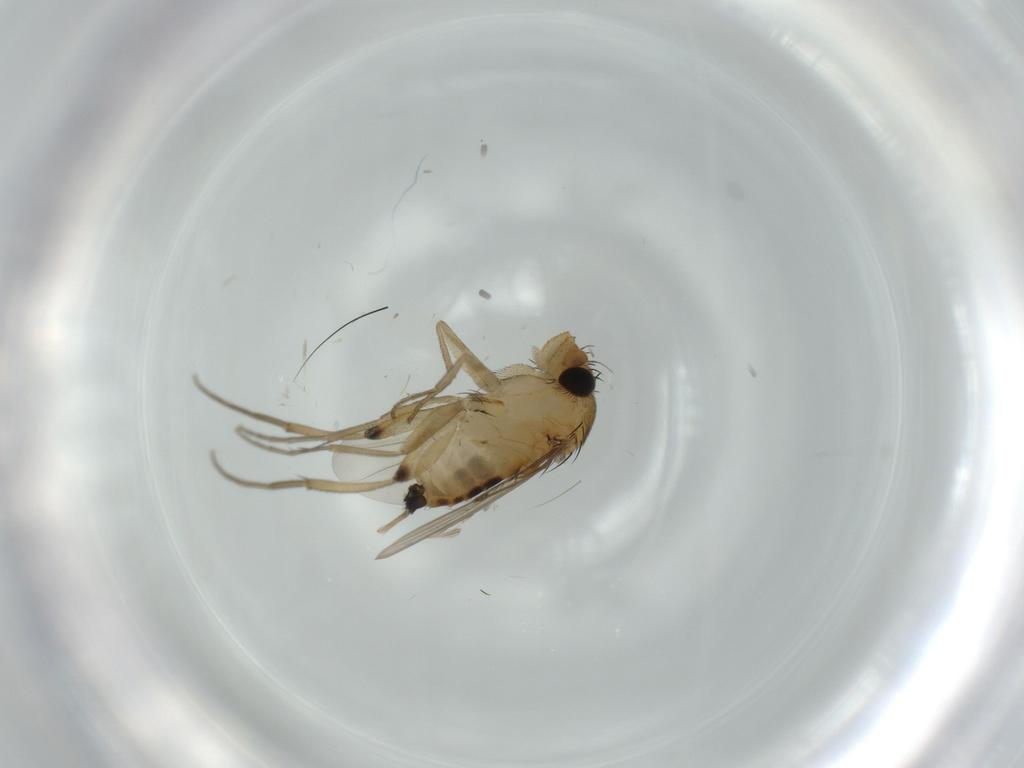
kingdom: Animalia
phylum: Arthropoda
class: Insecta
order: Diptera
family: Phoridae
